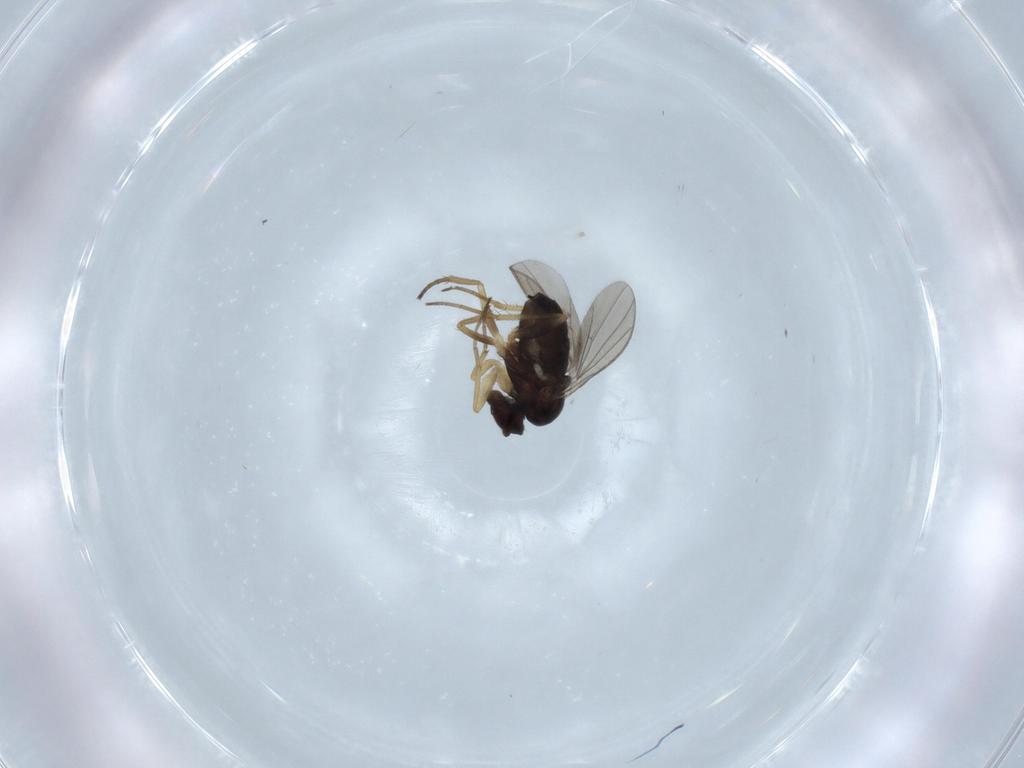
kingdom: Animalia
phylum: Arthropoda
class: Insecta
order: Diptera
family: Dolichopodidae
